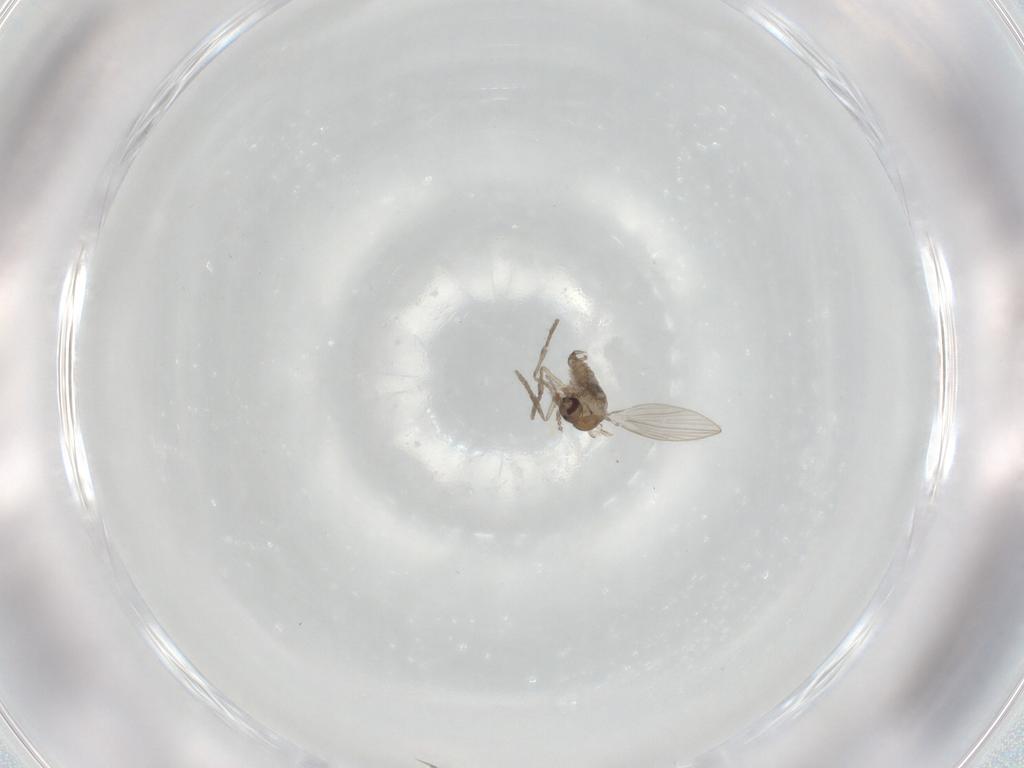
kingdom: Animalia
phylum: Arthropoda
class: Insecta
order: Diptera
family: Psychodidae
